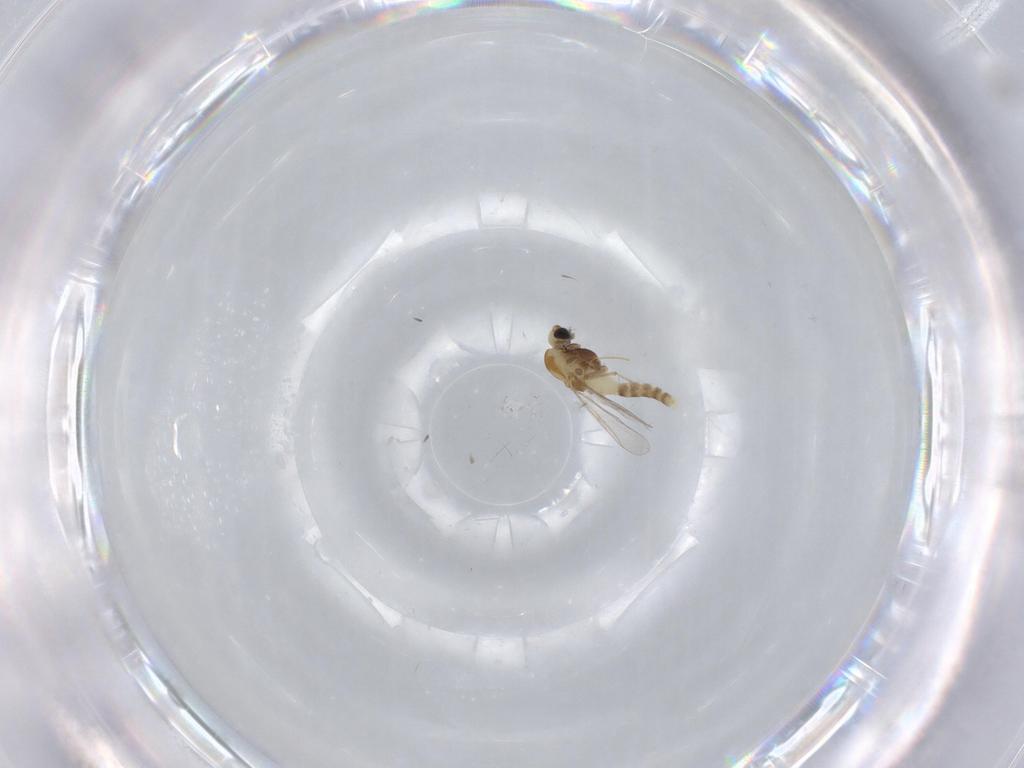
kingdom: Animalia
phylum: Arthropoda
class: Insecta
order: Diptera
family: Chironomidae
